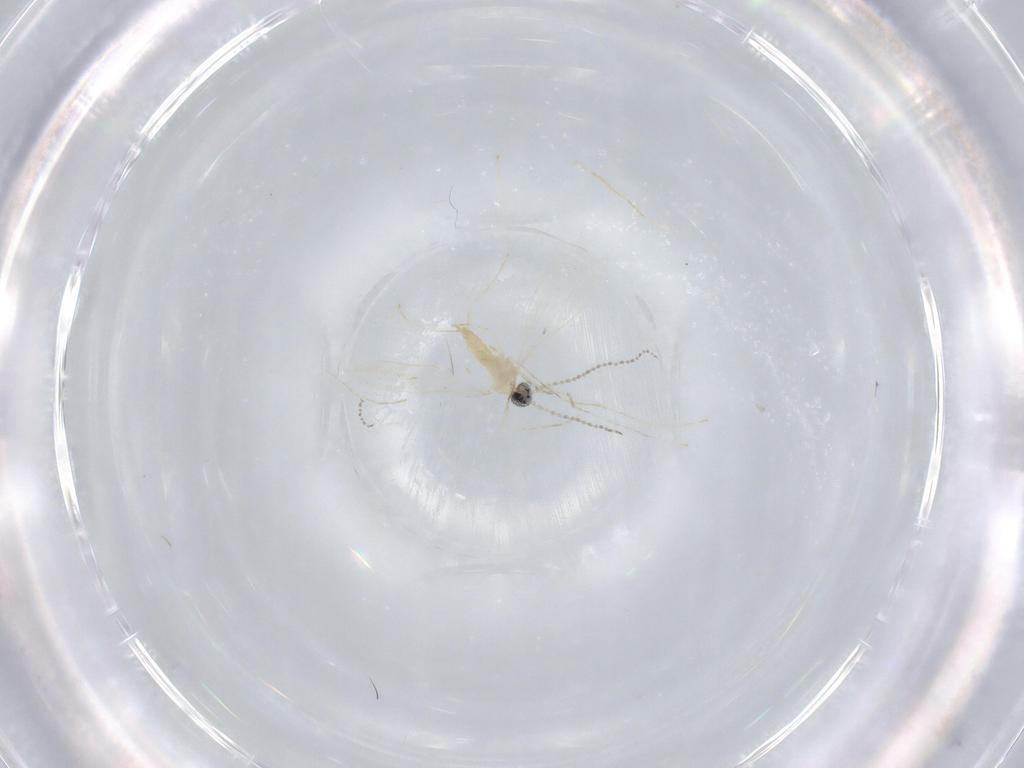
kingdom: Animalia
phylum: Arthropoda
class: Insecta
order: Diptera
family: Cecidomyiidae
